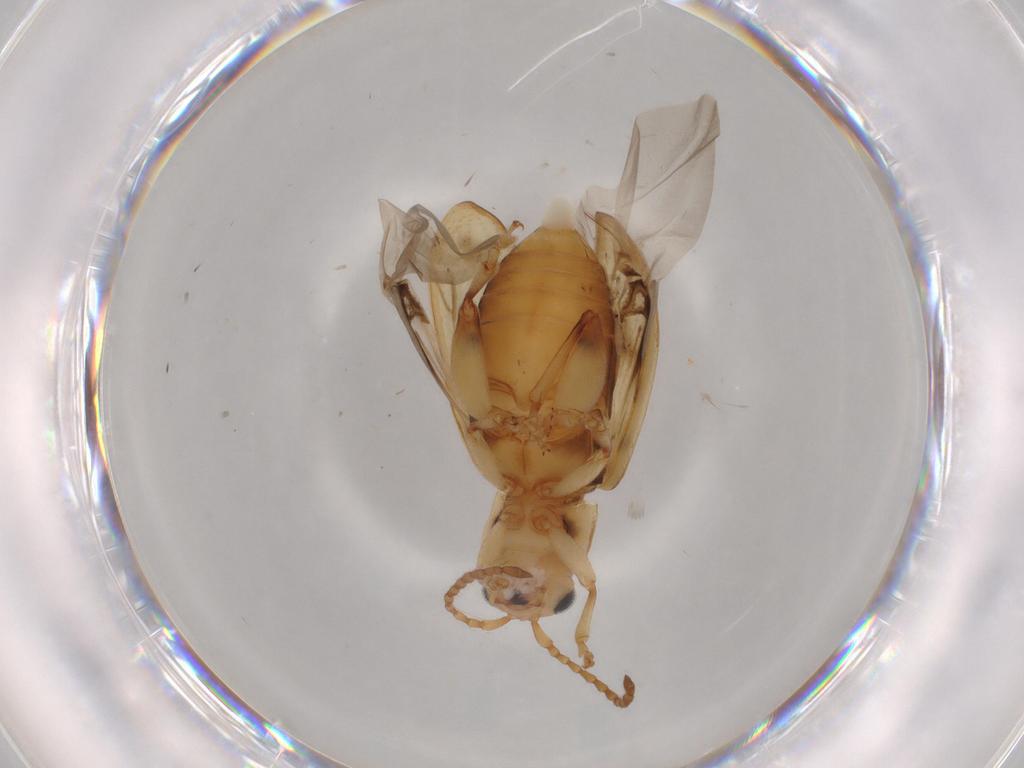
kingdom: Animalia
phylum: Arthropoda
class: Insecta
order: Coleoptera
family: Chrysomelidae
